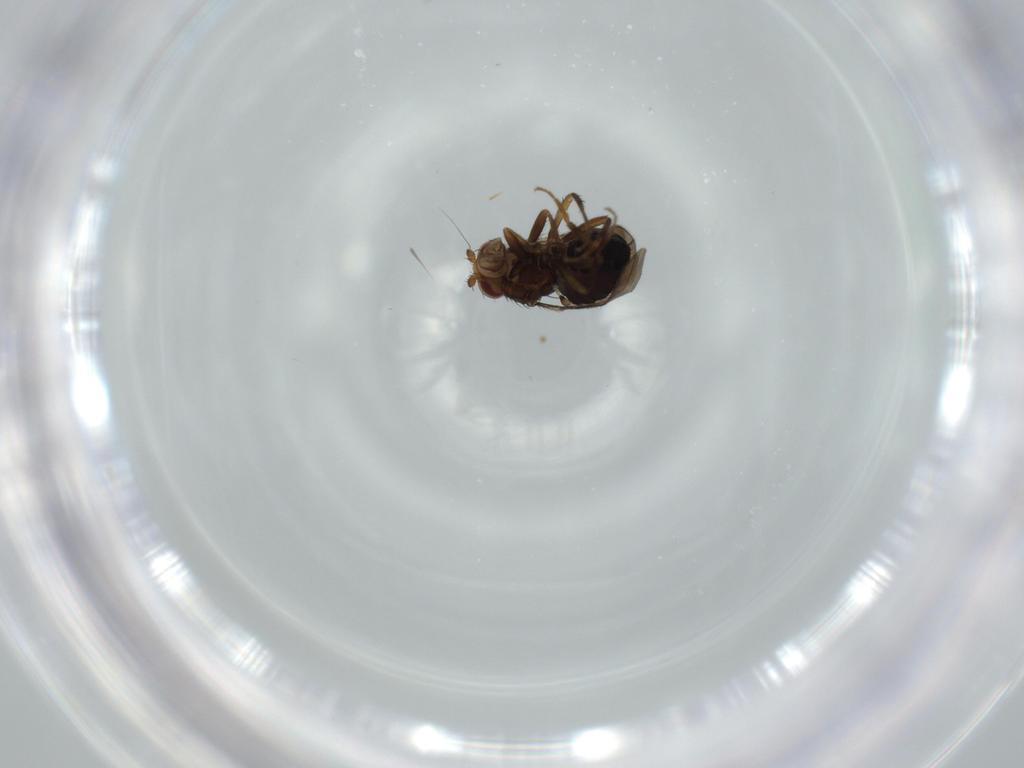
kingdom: Animalia
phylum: Arthropoda
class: Insecta
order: Diptera
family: Sphaeroceridae
